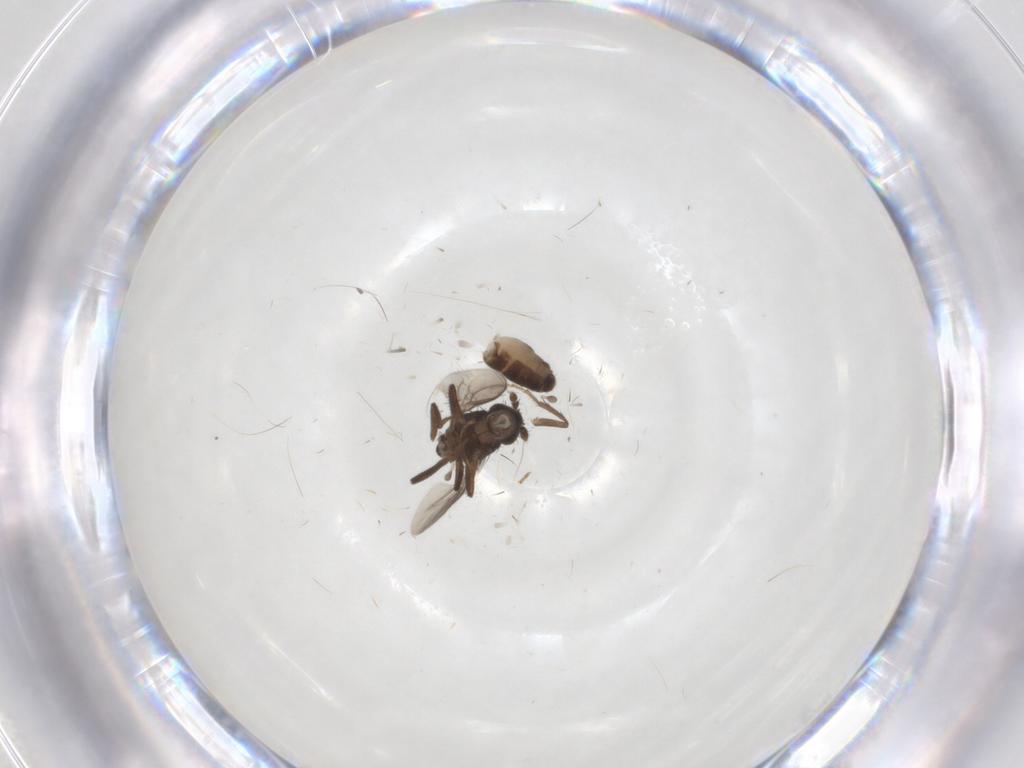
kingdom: Animalia
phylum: Arthropoda
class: Insecta
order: Diptera
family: Sphaeroceridae
